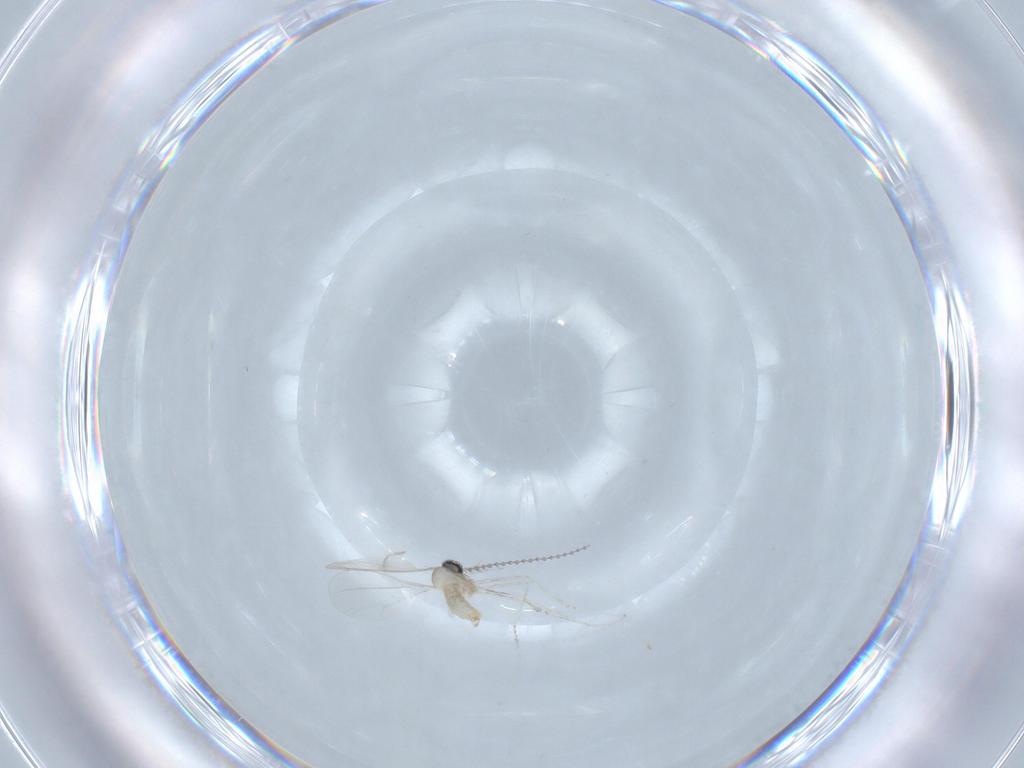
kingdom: Animalia
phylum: Arthropoda
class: Insecta
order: Diptera
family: Cecidomyiidae
